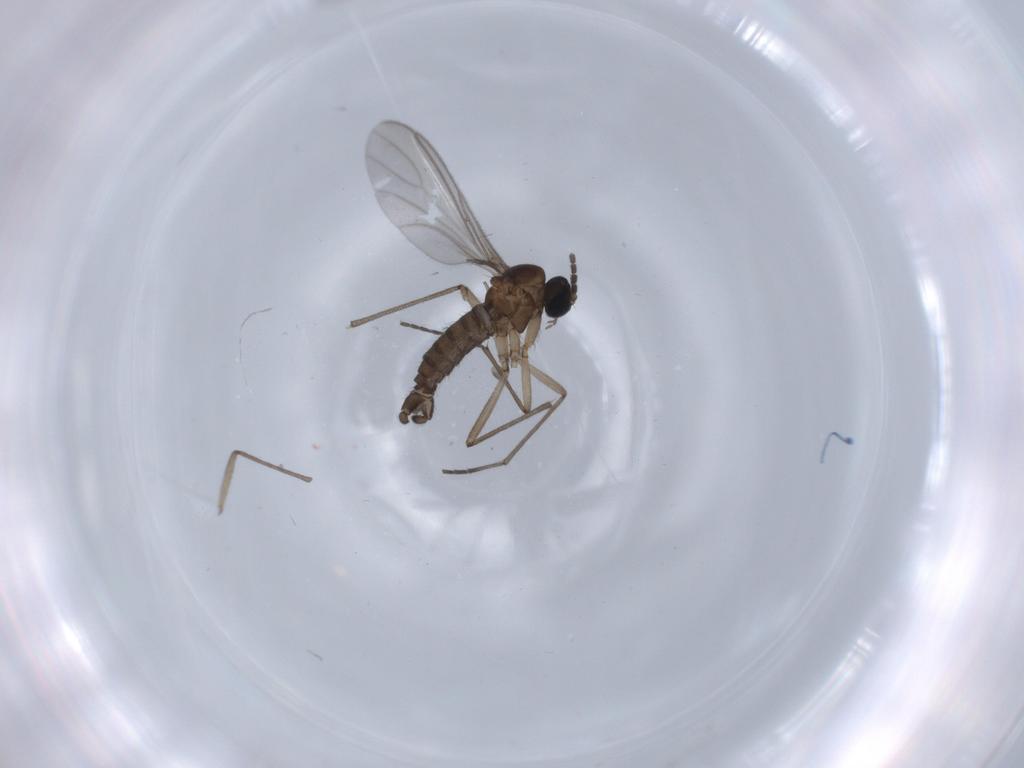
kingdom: Animalia
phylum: Arthropoda
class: Insecta
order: Diptera
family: Sciaridae
